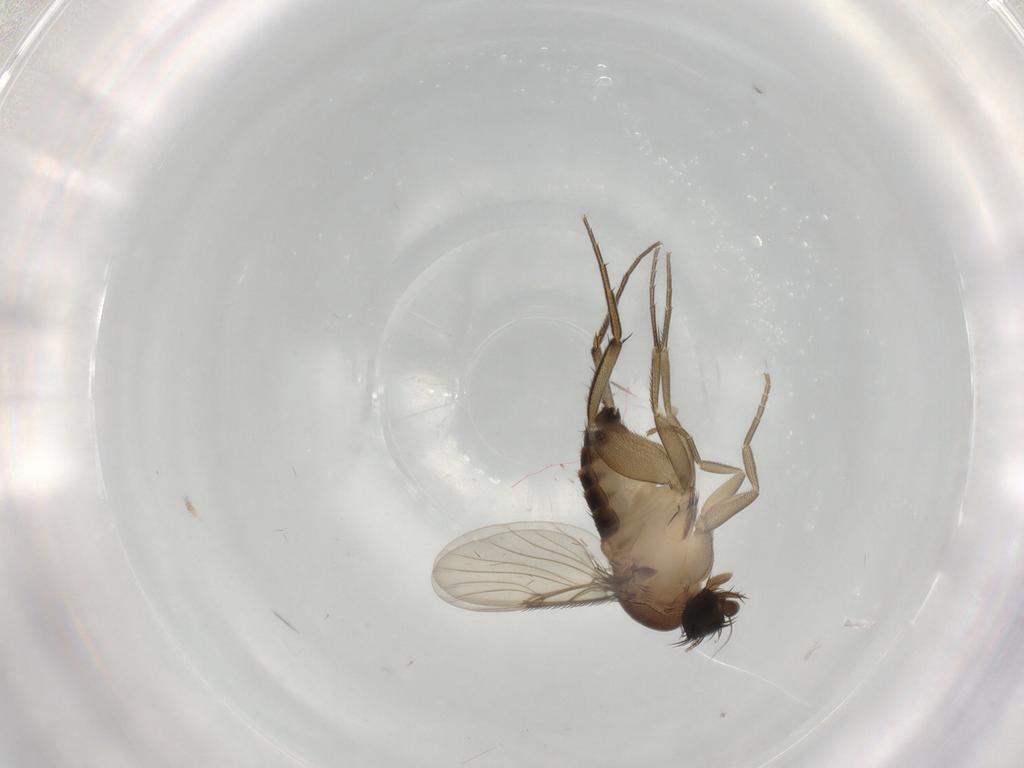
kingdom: Animalia
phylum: Arthropoda
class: Insecta
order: Diptera
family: Phoridae
